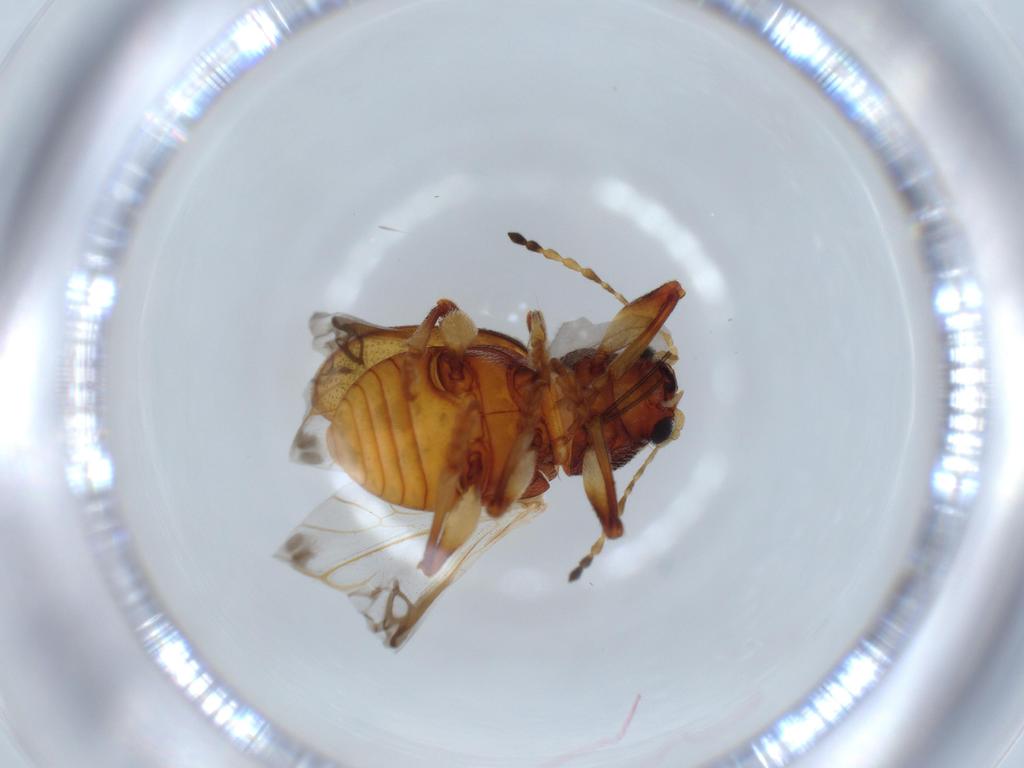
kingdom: Animalia
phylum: Arthropoda
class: Insecta
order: Coleoptera
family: Chrysomelidae
